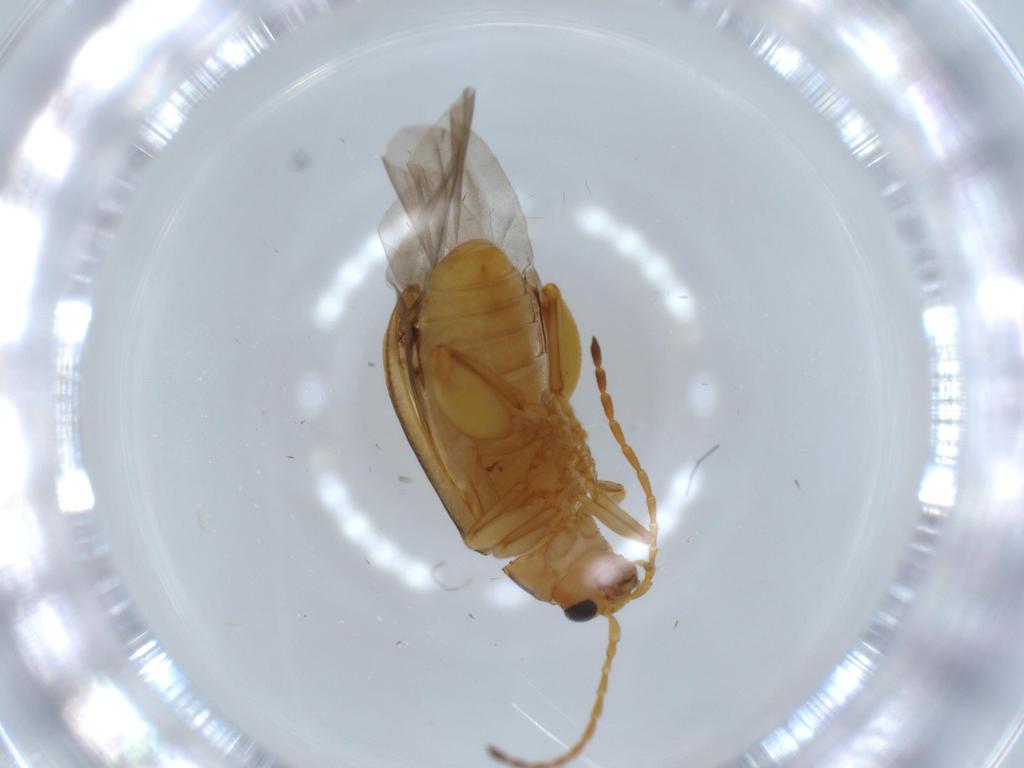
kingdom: Animalia
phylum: Arthropoda
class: Insecta
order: Coleoptera
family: Chrysomelidae
